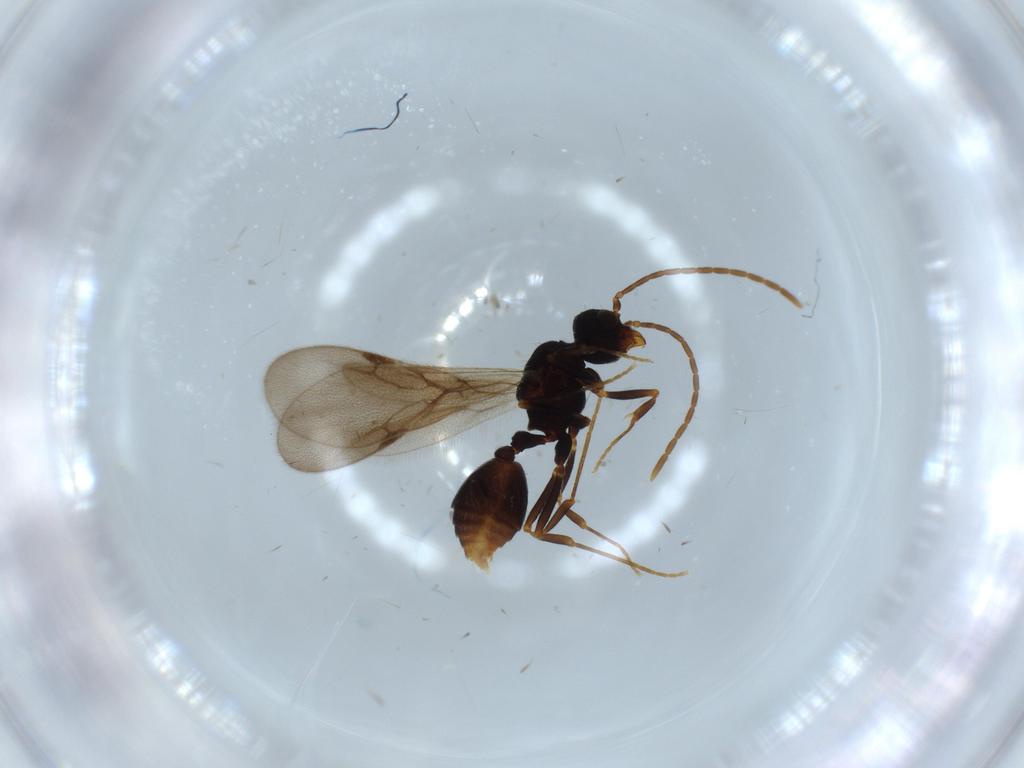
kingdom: Animalia
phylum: Arthropoda
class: Insecta
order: Hymenoptera
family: Formicidae
